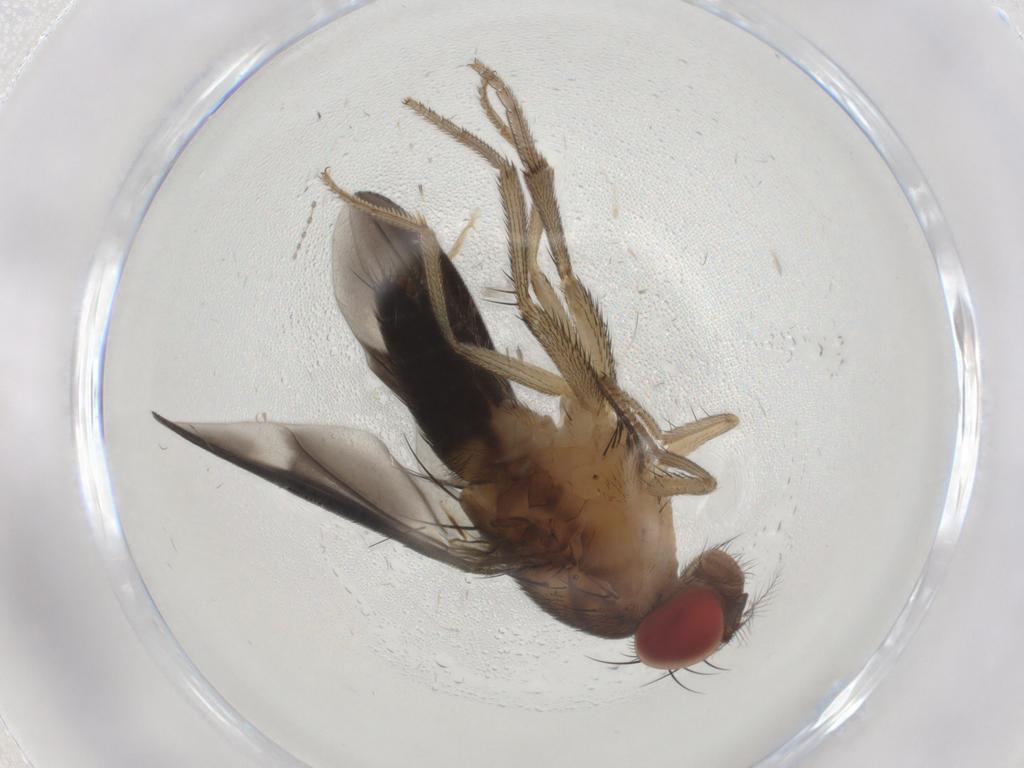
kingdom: Animalia
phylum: Arthropoda
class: Insecta
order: Diptera
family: Drosophilidae
